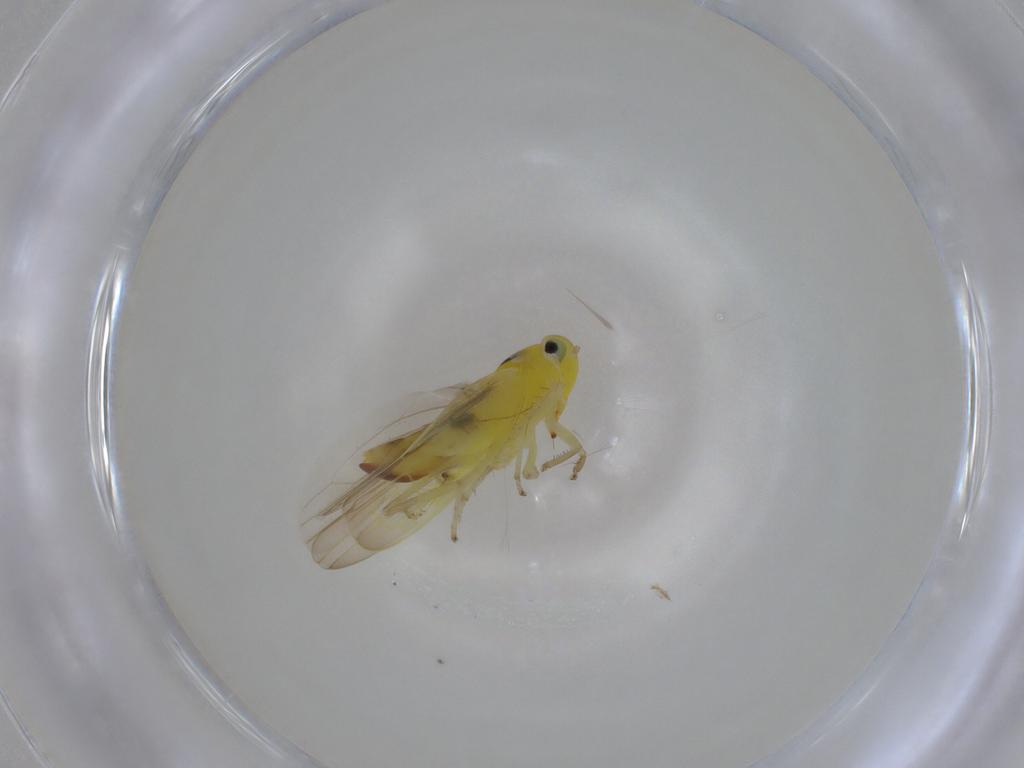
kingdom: Animalia
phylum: Arthropoda
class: Insecta
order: Hemiptera
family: Cicadellidae
